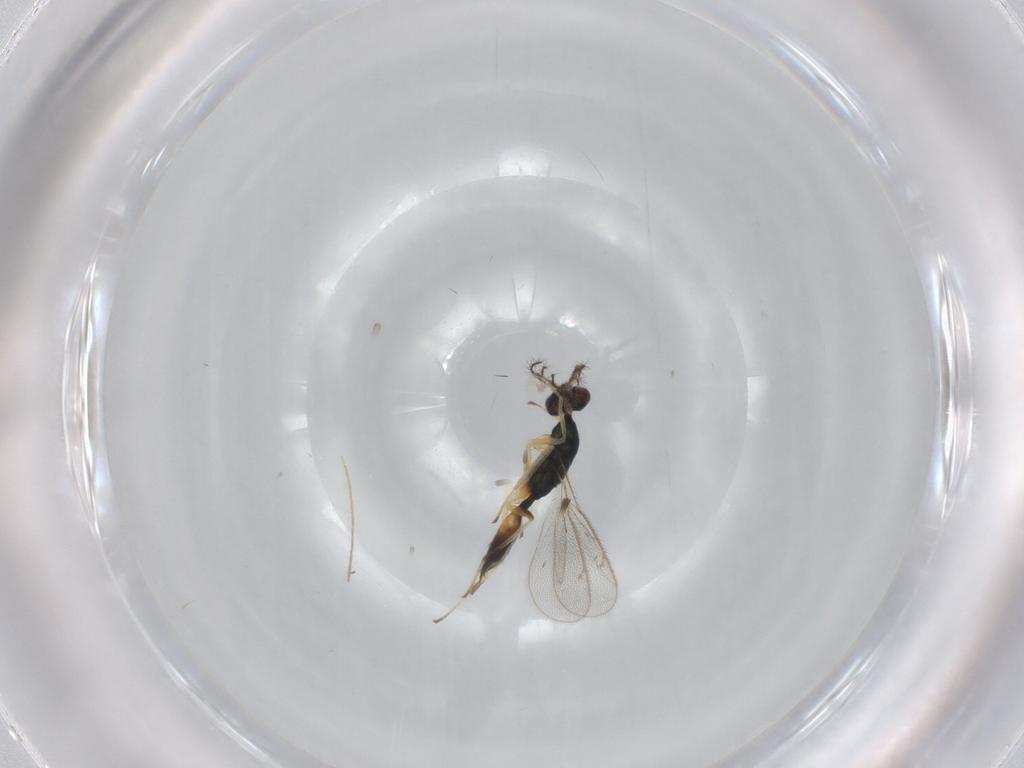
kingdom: Animalia
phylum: Arthropoda
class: Insecta
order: Hymenoptera
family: Eulophidae
